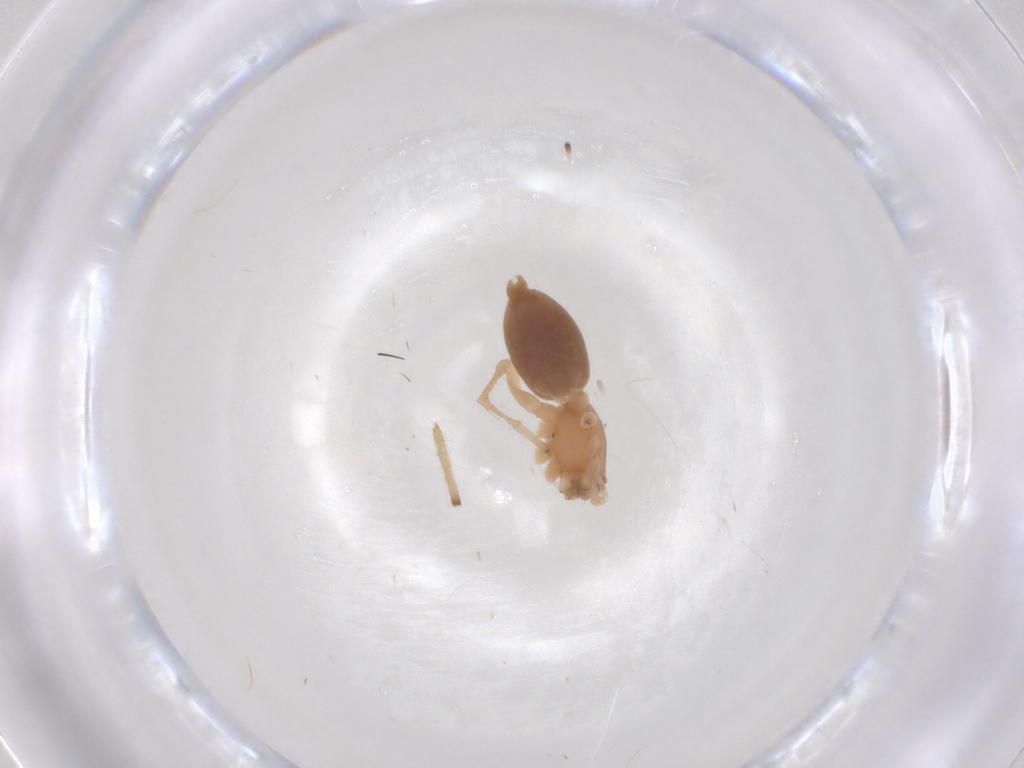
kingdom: Animalia
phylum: Arthropoda
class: Arachnida
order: Araneae
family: Clubionidae
